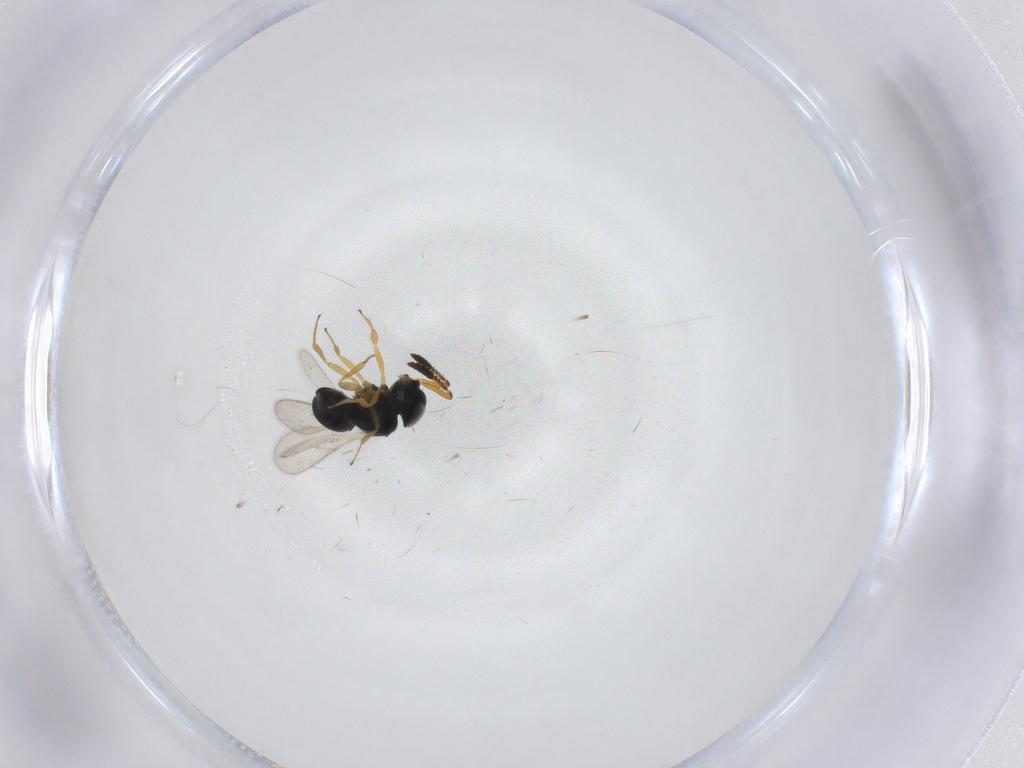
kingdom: Animalia
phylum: Arthropoda
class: Insecta
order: Hymenoptera
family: Scelionidae
